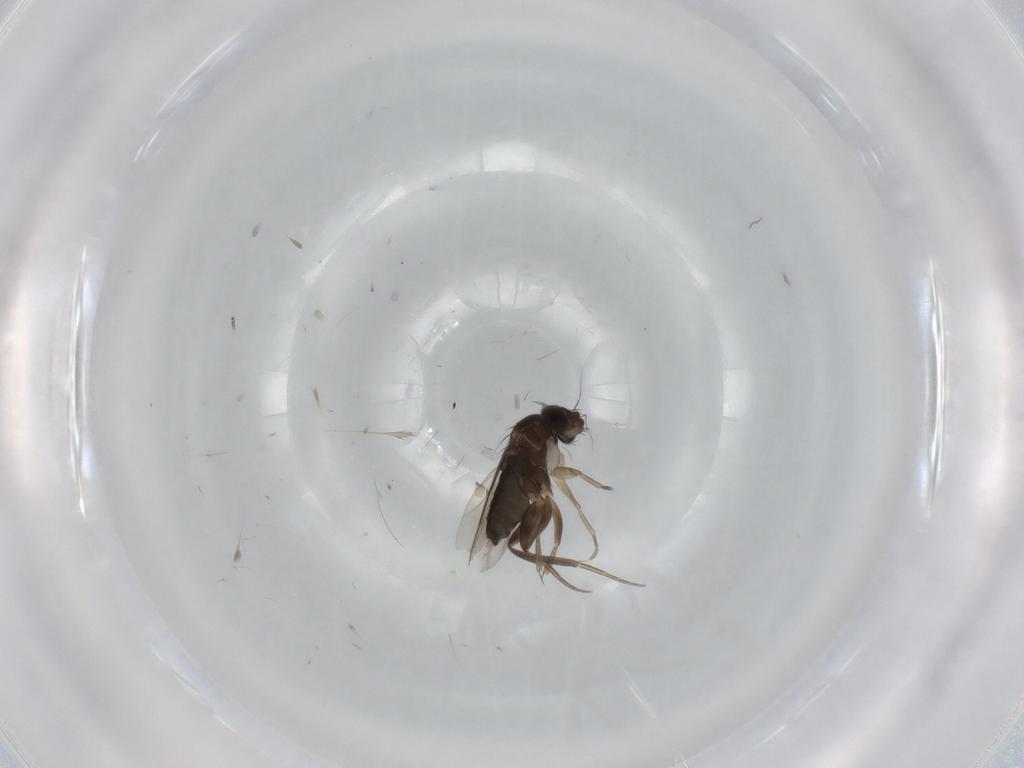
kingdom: Animalia
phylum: Arthropoda
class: Insecta
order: Diptera
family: Phoridae
